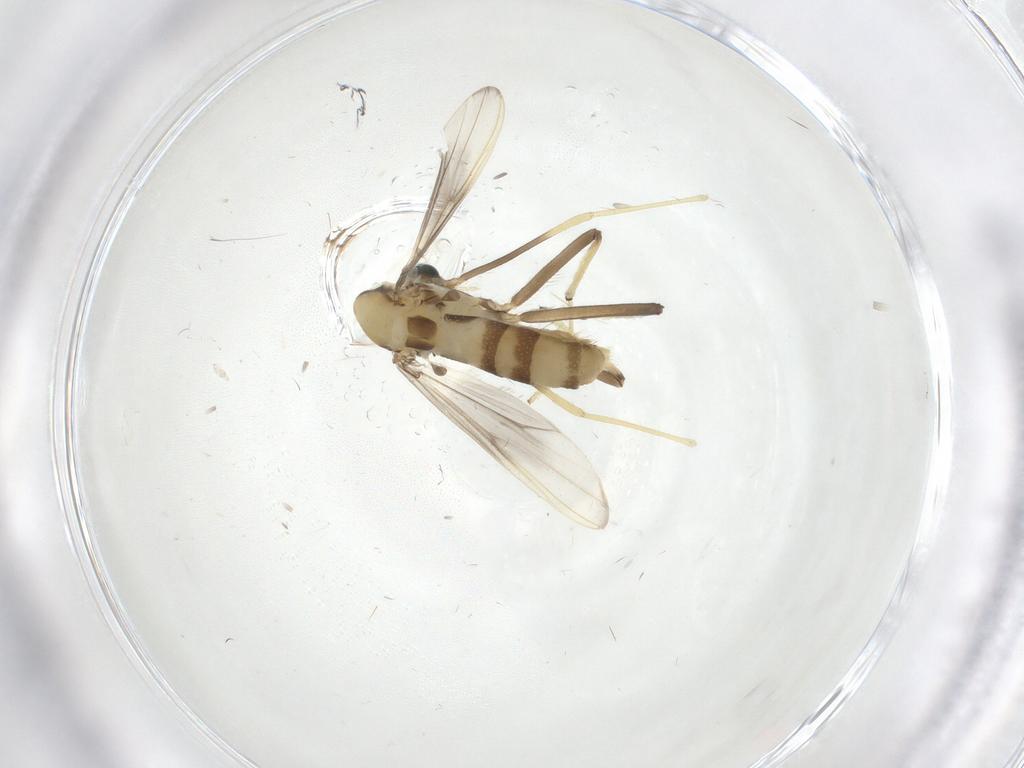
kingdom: Animalia
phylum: Arthropoda
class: Insecta
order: Diptera
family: Chironomidae
